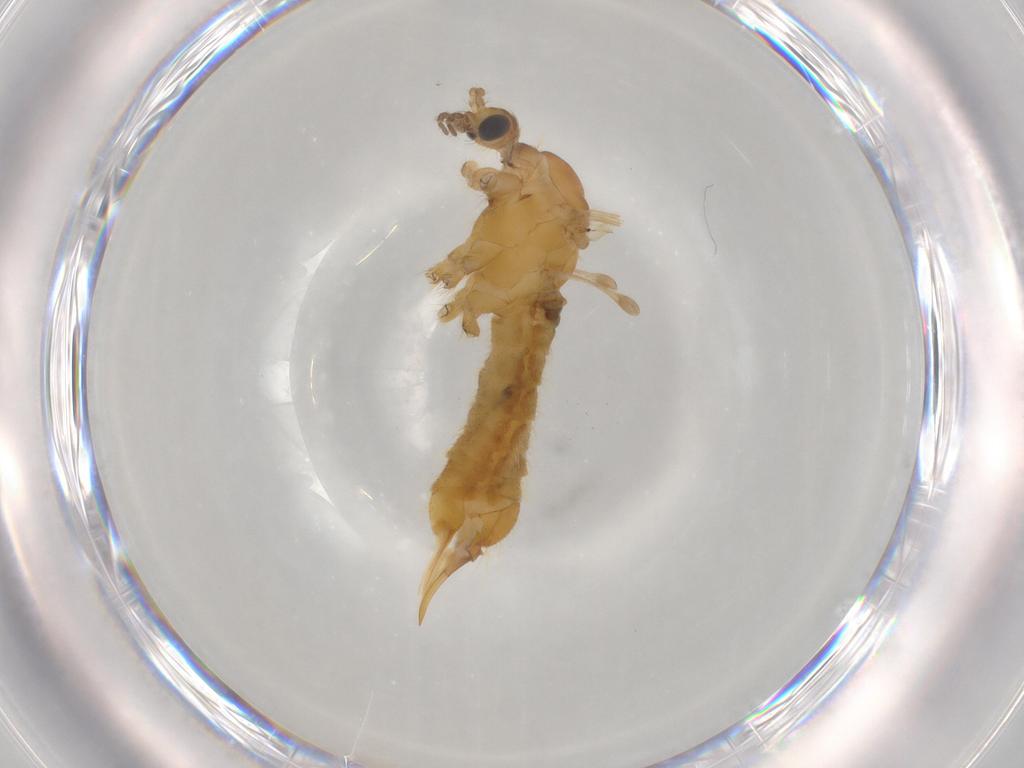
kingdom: Animalia
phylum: Arthropoda
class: Insecta
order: Diptera
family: Limoniidae
